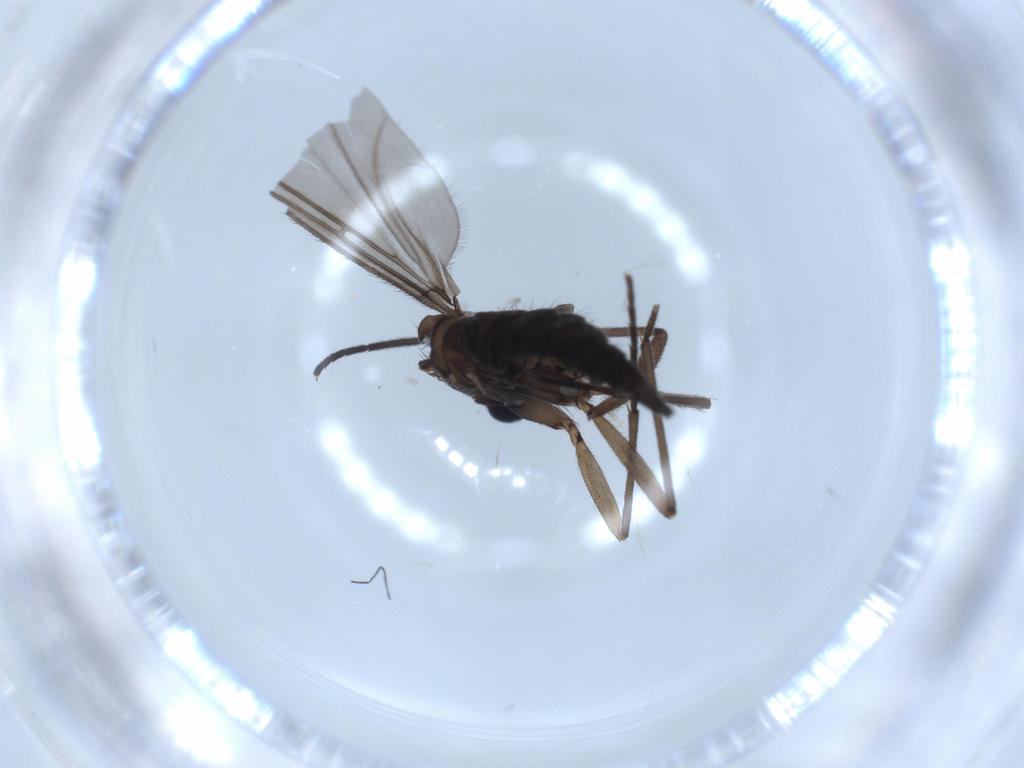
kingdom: Animalia
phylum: Arthropoda
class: Insecta
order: Diptera
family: Sciaridae
